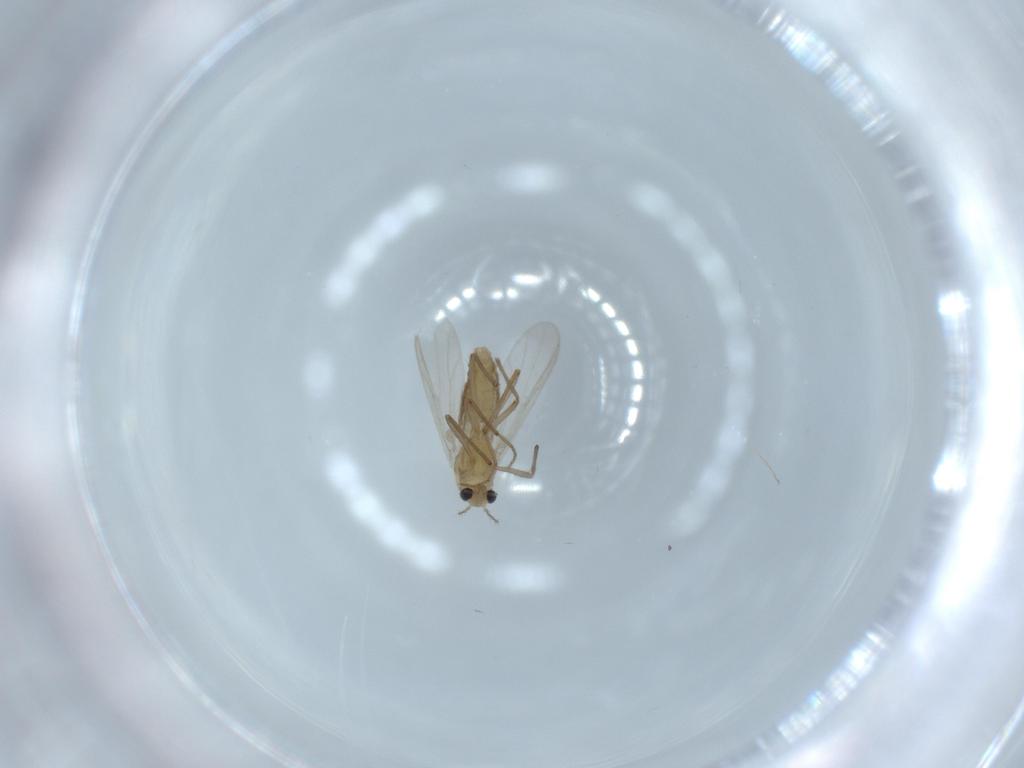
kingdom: Animalia
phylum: Arthropoda
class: Insecta
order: Diptera
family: Chironomidae
